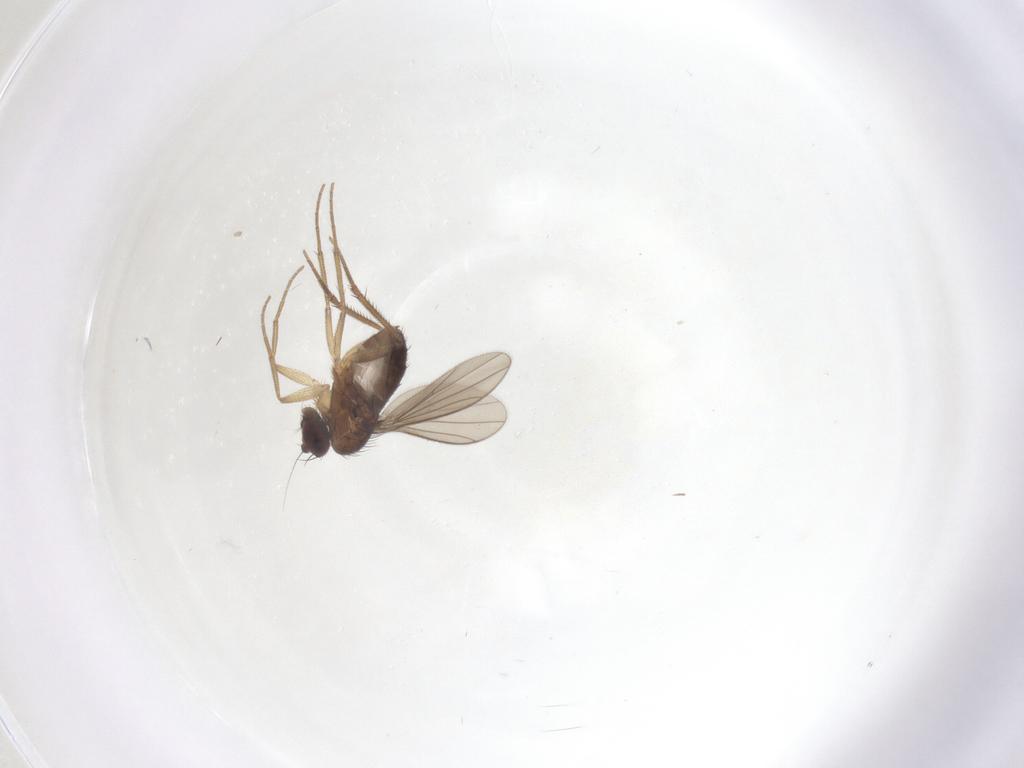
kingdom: Animalia
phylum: Arthropoda
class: Insecta
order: Diptera
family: Dolichopodidae
